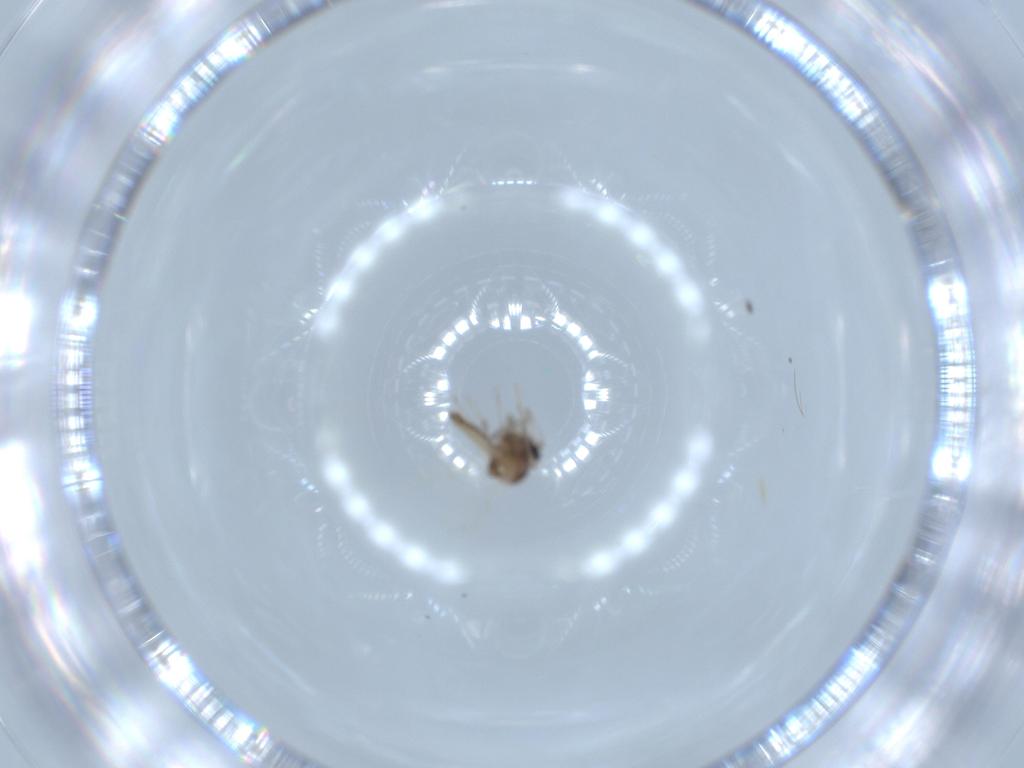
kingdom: Animalia
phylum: Arthropoda
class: Insecta
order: Diptera
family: Ceratopogonidae
